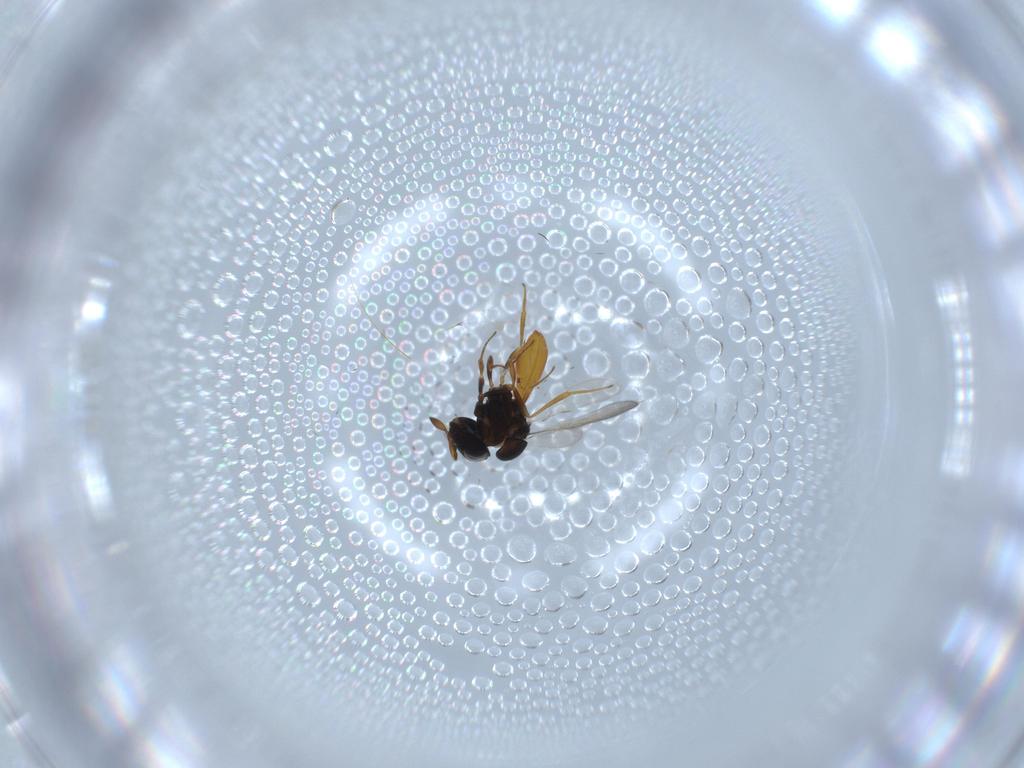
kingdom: Animalia
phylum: Arthropoda
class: Insecta
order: Hymenoptera
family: Scelionidae
